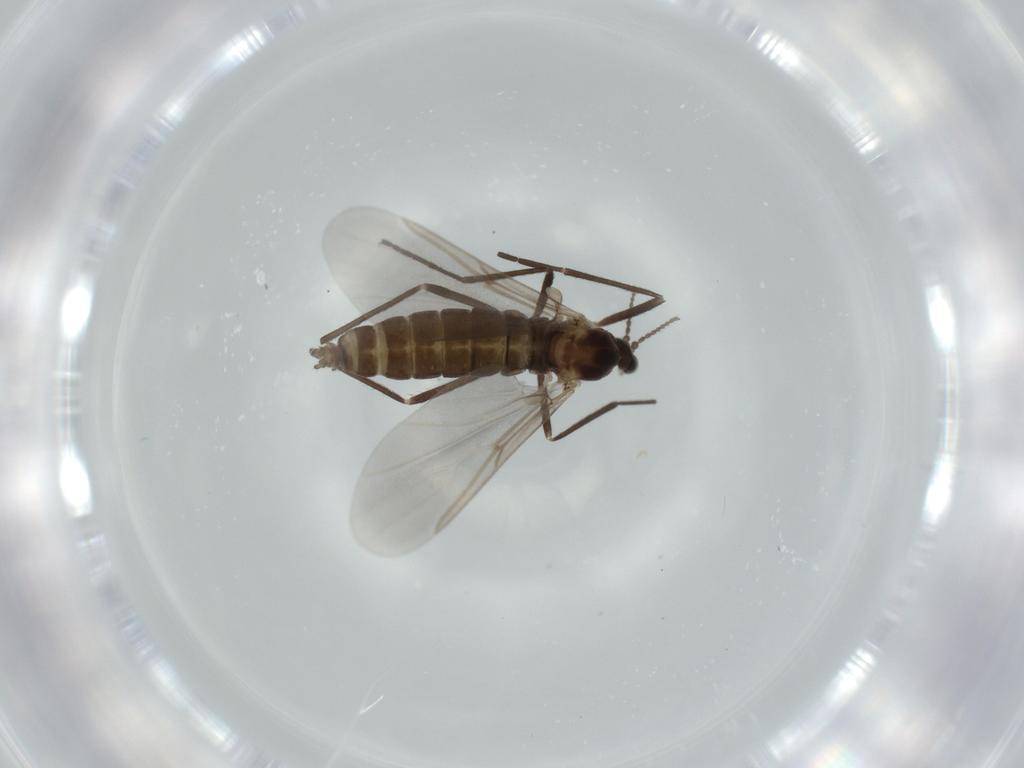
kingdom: Animalia
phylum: Arthropoda
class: Insecta
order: Diptera
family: Cecidomyiidae
